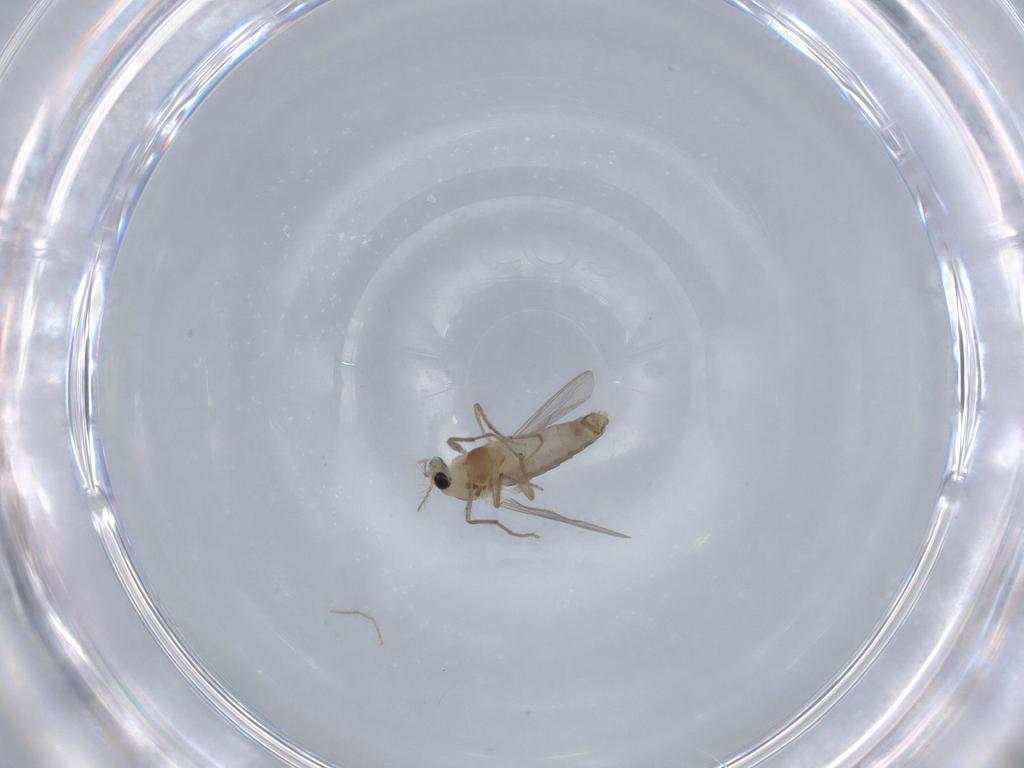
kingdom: Animalia
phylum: Arthropoda
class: Insecta
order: Diptera
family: Chironomidae
